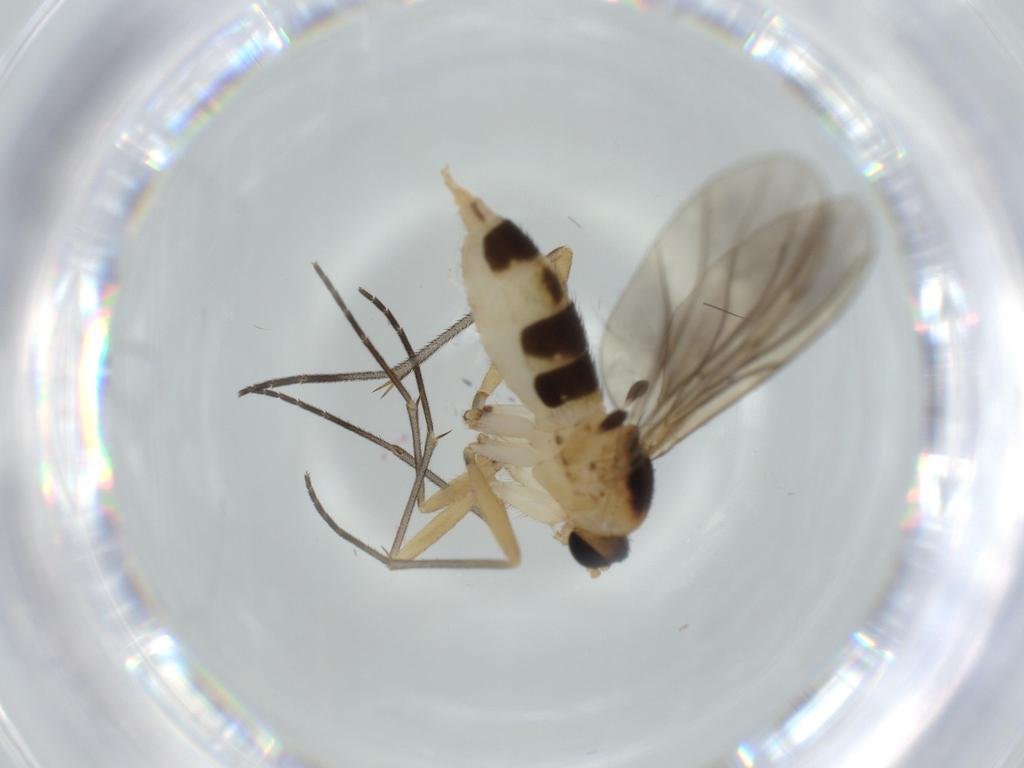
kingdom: Animalia
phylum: Arthropoda
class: Insecta
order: Diptera
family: Sciaridae
